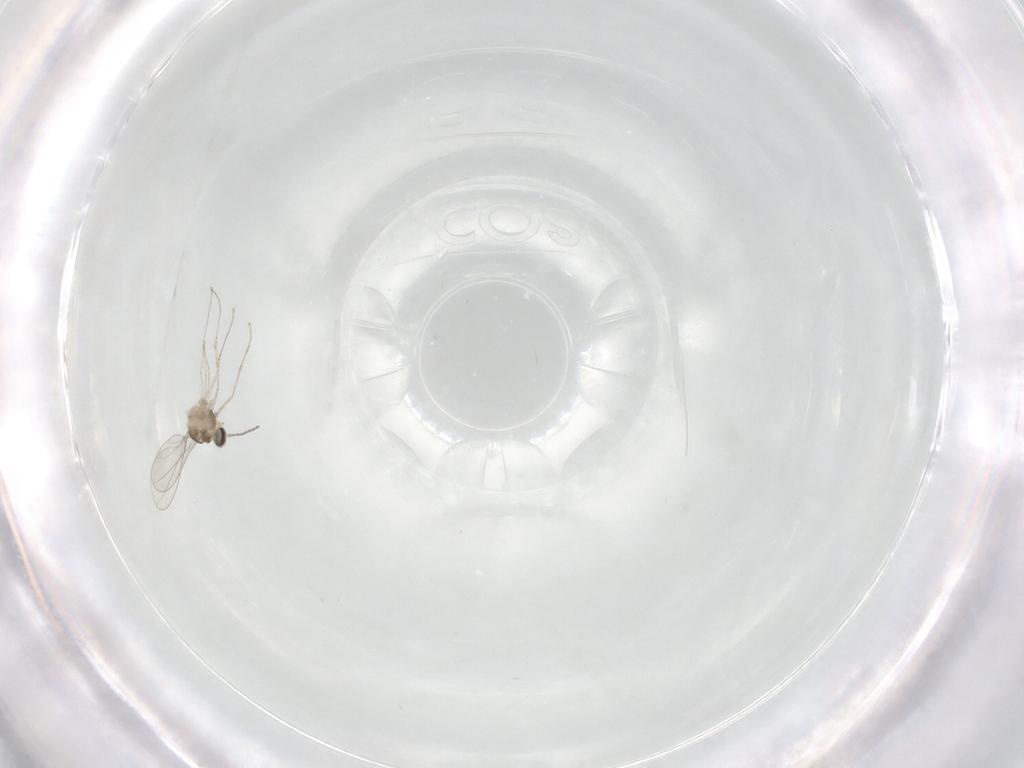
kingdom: Animalia
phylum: Arthropoda
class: Insecta
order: Diptera
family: Cecidomyiidae
